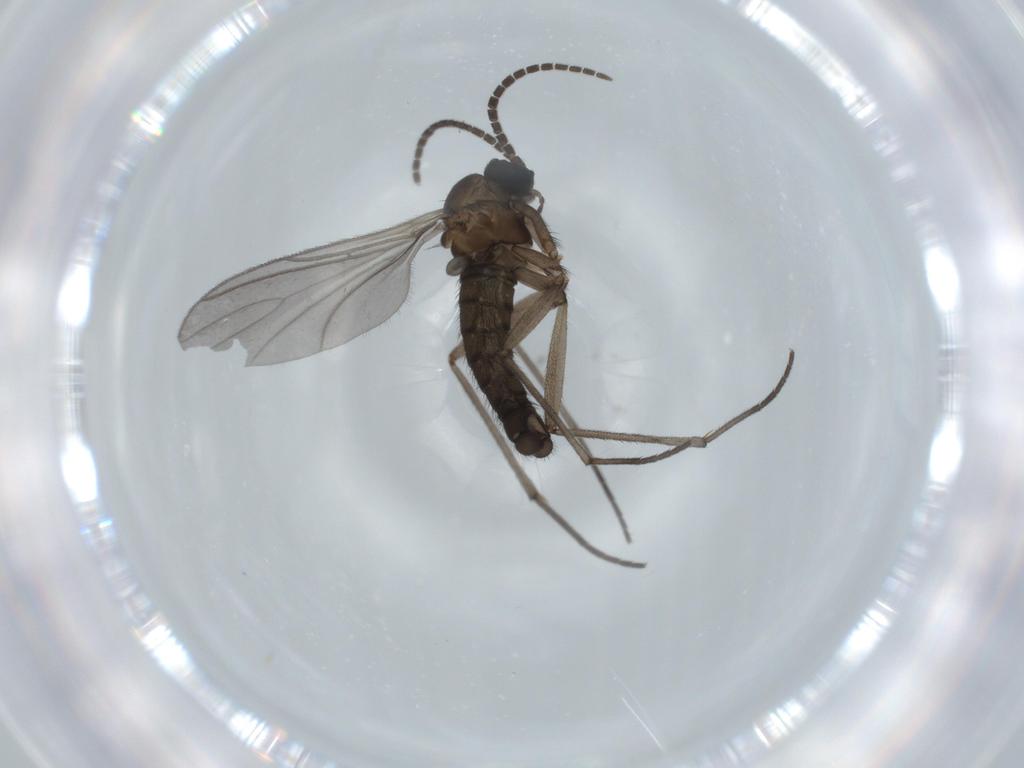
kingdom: Animalia
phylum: Arthropoda
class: Insecta
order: Diptera
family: Sciaridae
